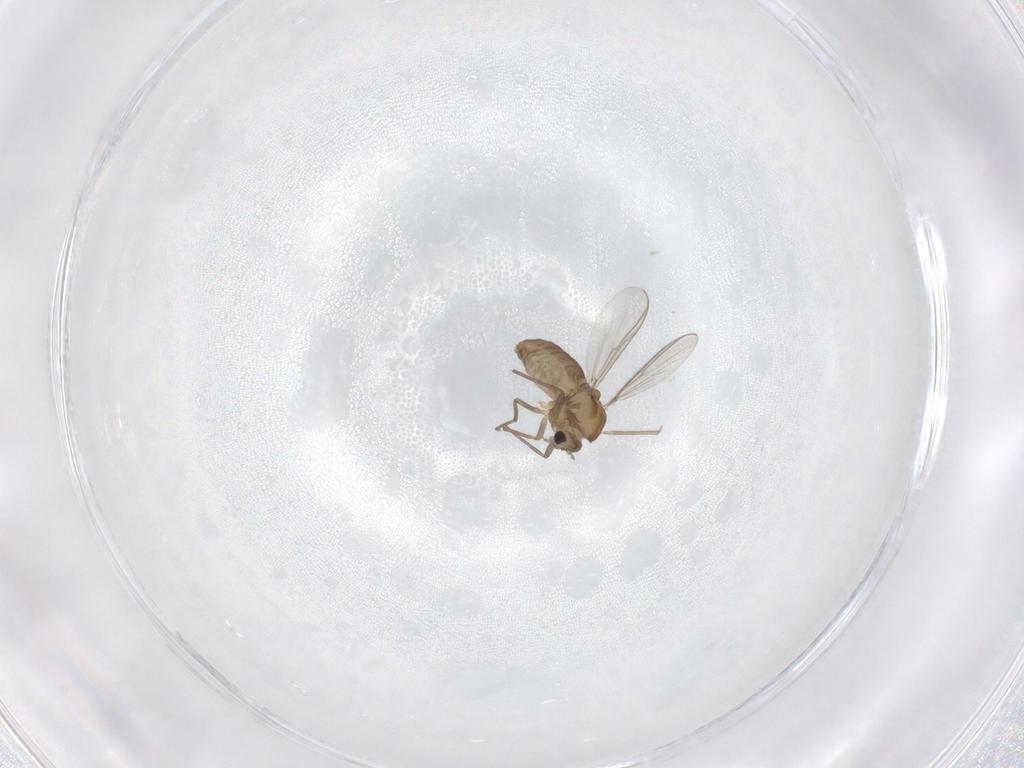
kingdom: Animalia
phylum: Arthropoda
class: Insecta
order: Diptera
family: Chironomidae
